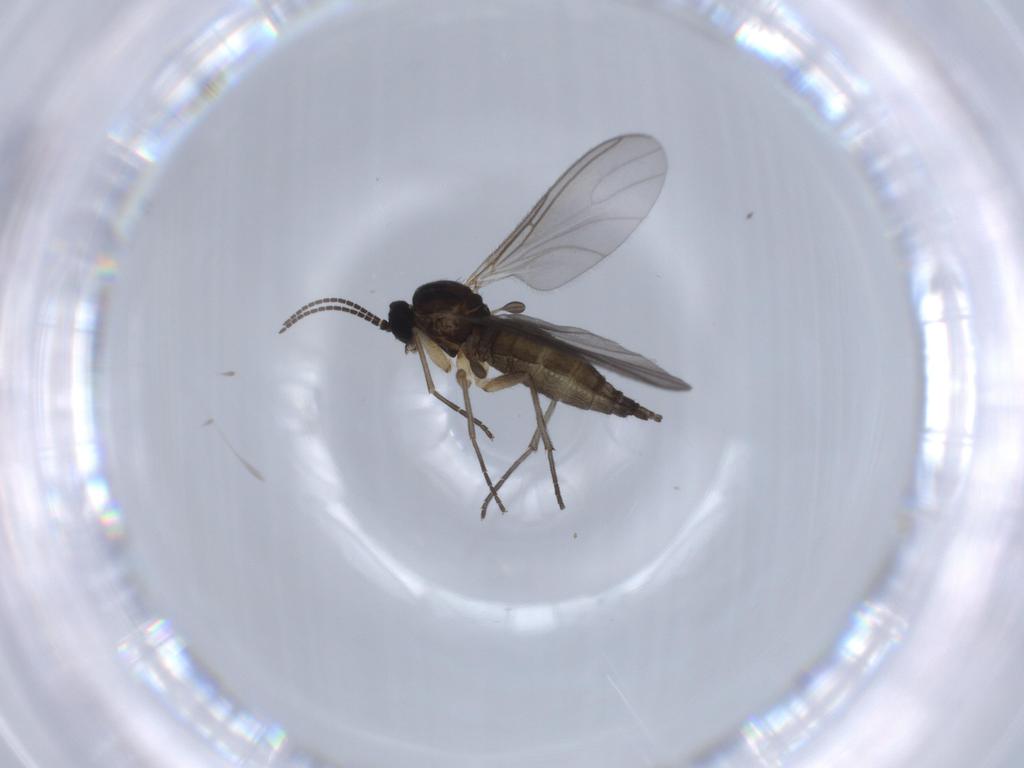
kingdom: Animalia
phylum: Arthropoda
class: Insecta
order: Diptera
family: Sciaridae
